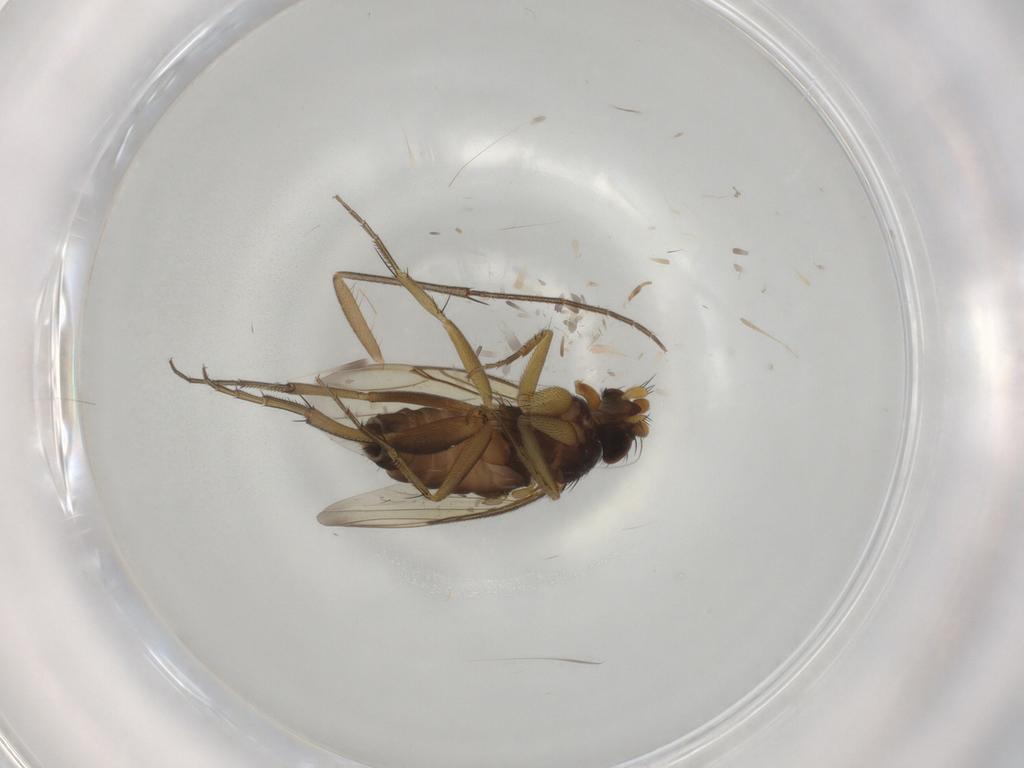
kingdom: Animalia
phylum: Arthropoda
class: Insecta
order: Diptera
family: Phoridae
